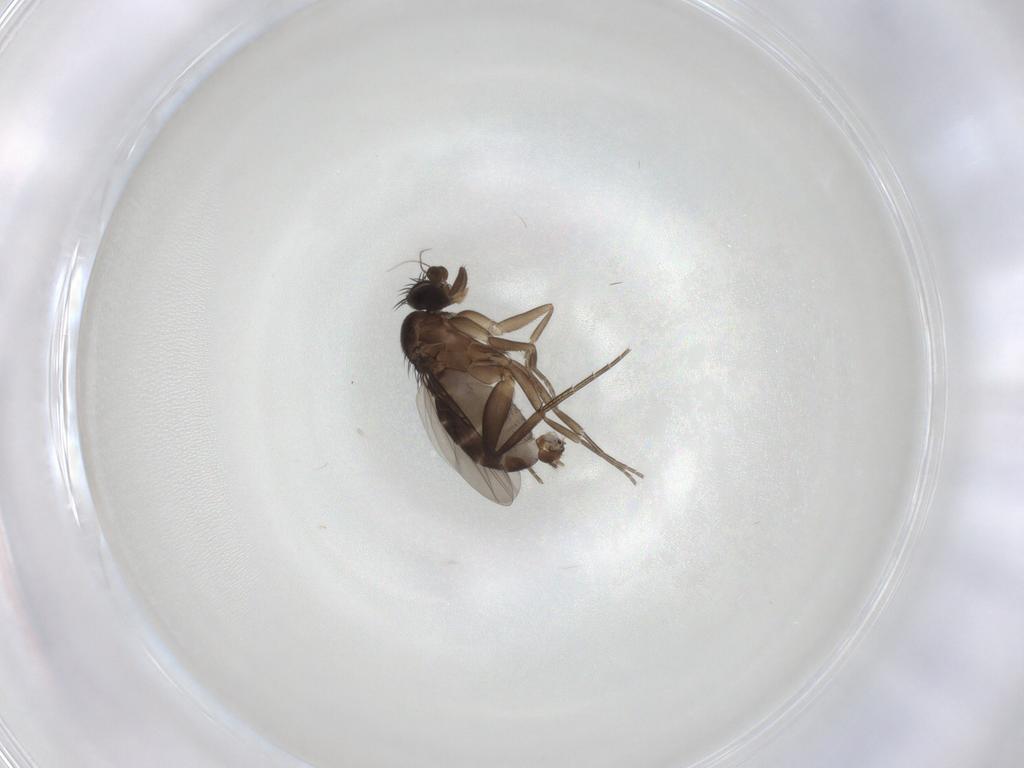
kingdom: Animalia
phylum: Arthropoda
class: Insecta
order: Diptera
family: Phoridae
